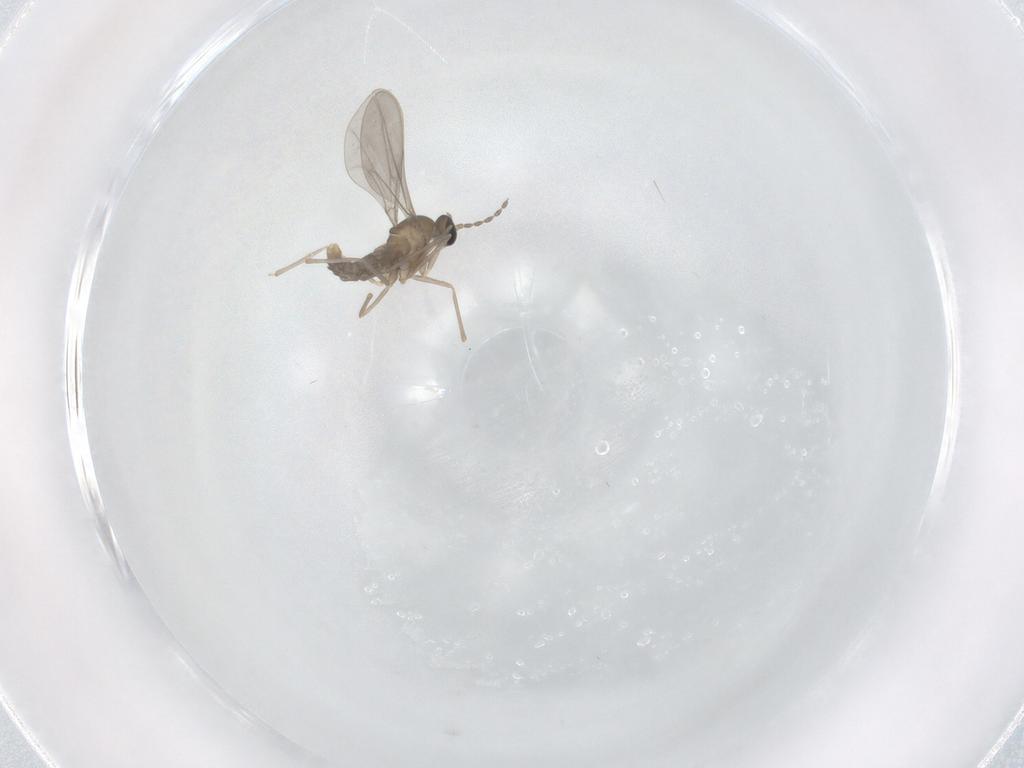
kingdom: Animalia
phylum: Arthropoda
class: Insecta
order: Diptera
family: Cecidomyiidae
